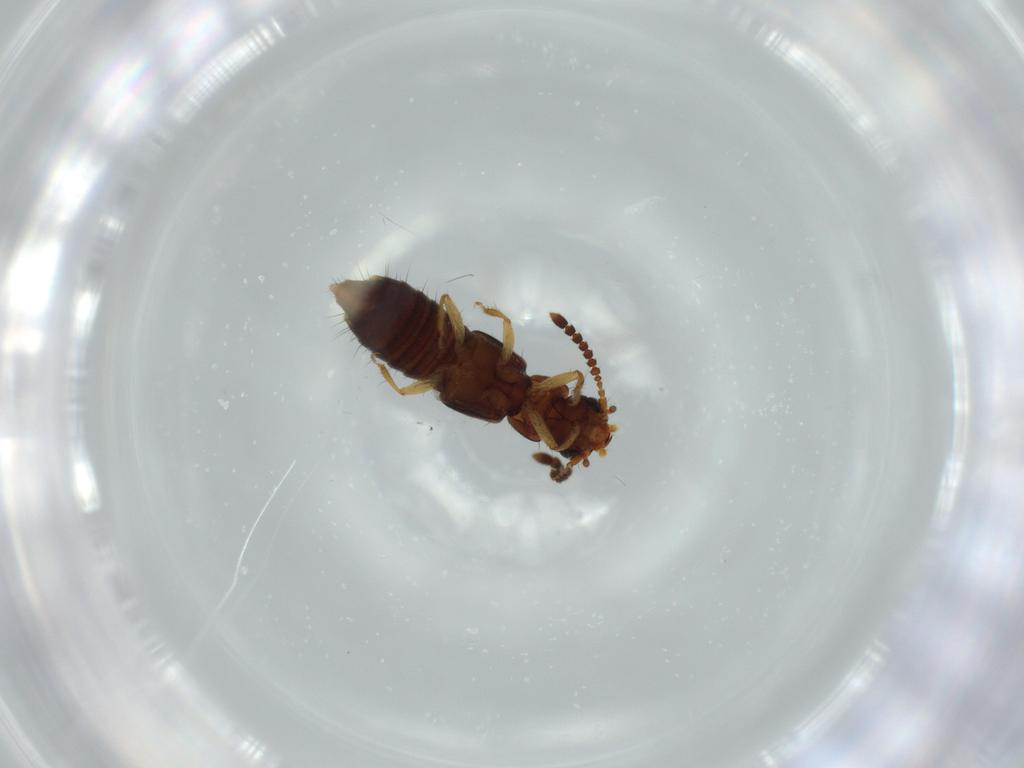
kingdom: Animalia
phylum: Arthropoda
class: Insecta
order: Coleoptera
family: Staphylinidae
